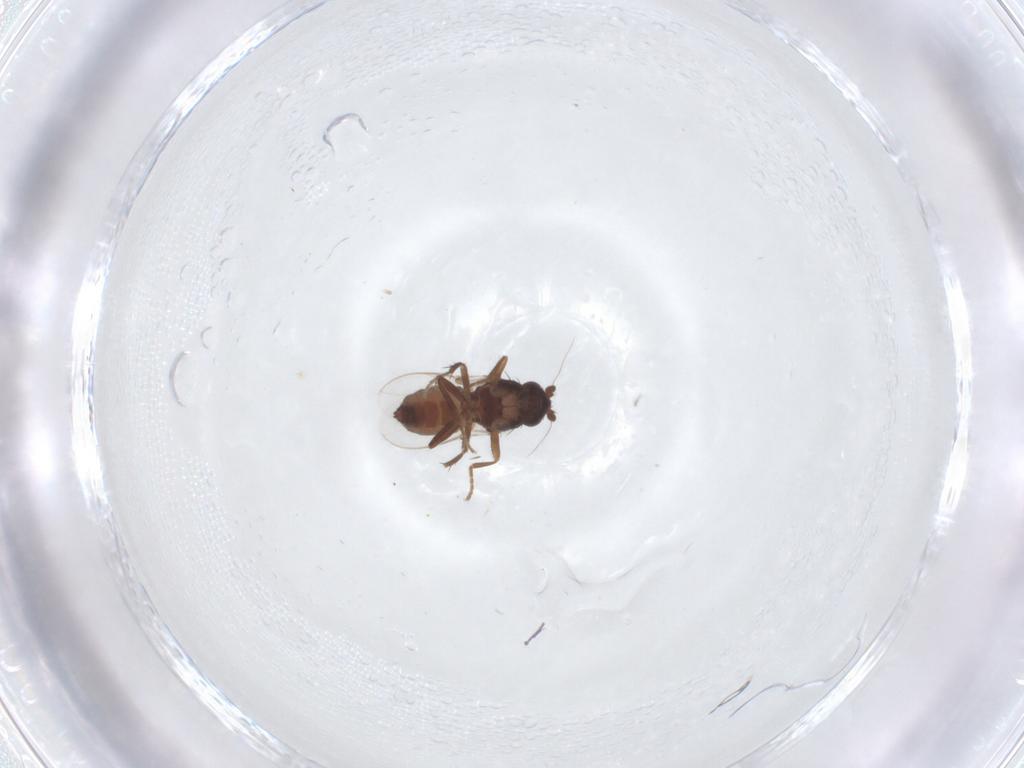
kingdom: Animalia
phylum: Arthropoda
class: Insecta
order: Diptera
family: Sphaeroceridae
